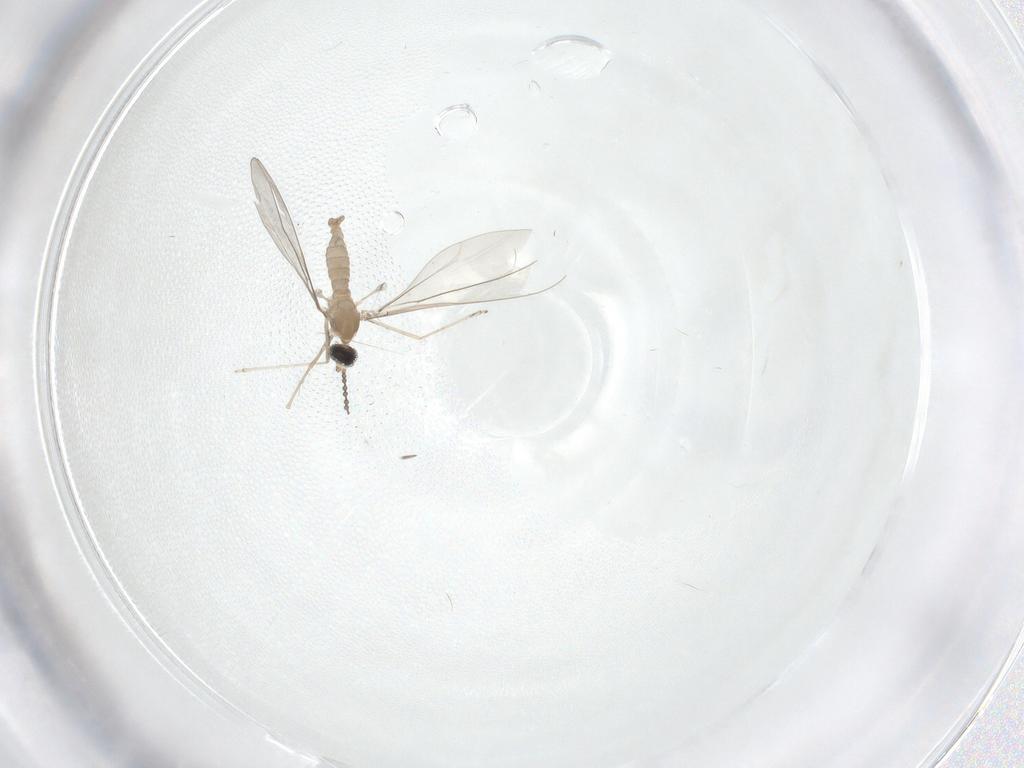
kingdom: Animalia
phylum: Arthropoda
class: Insecta
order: Diptera
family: Cecidomyiidae
